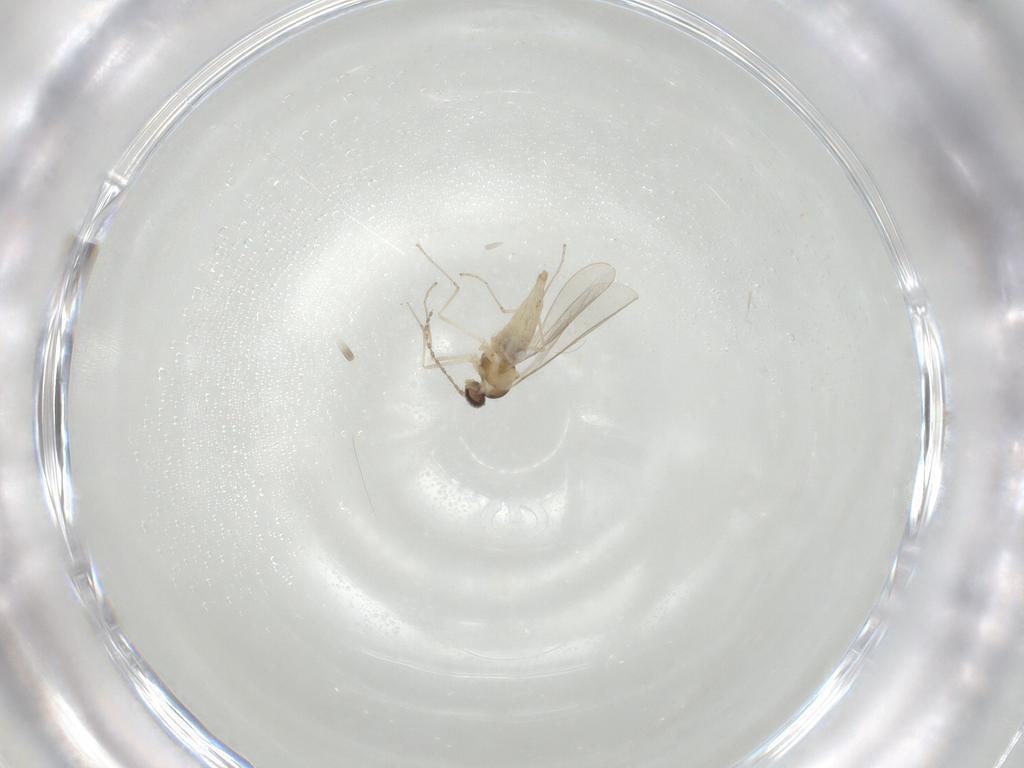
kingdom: Animalia
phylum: Arthropoda
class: Insecta
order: Diptera
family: Cecidomyiidae
